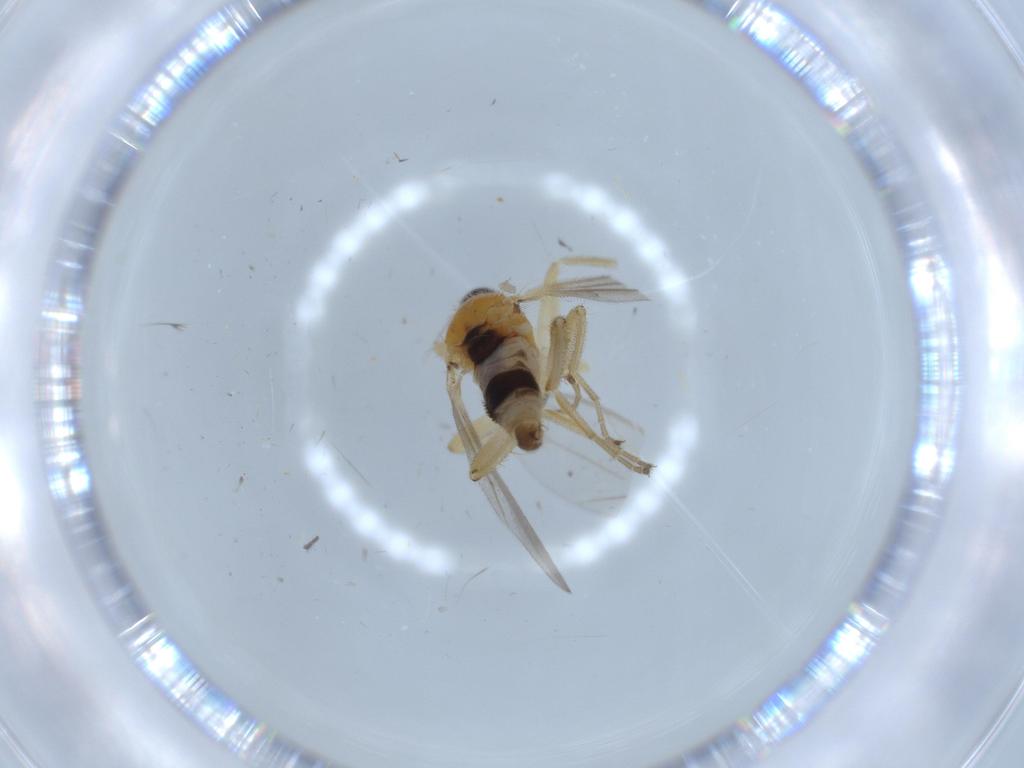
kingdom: Animalia
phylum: Arthropoda
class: Insecta
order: Diptera
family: Hybotidae
